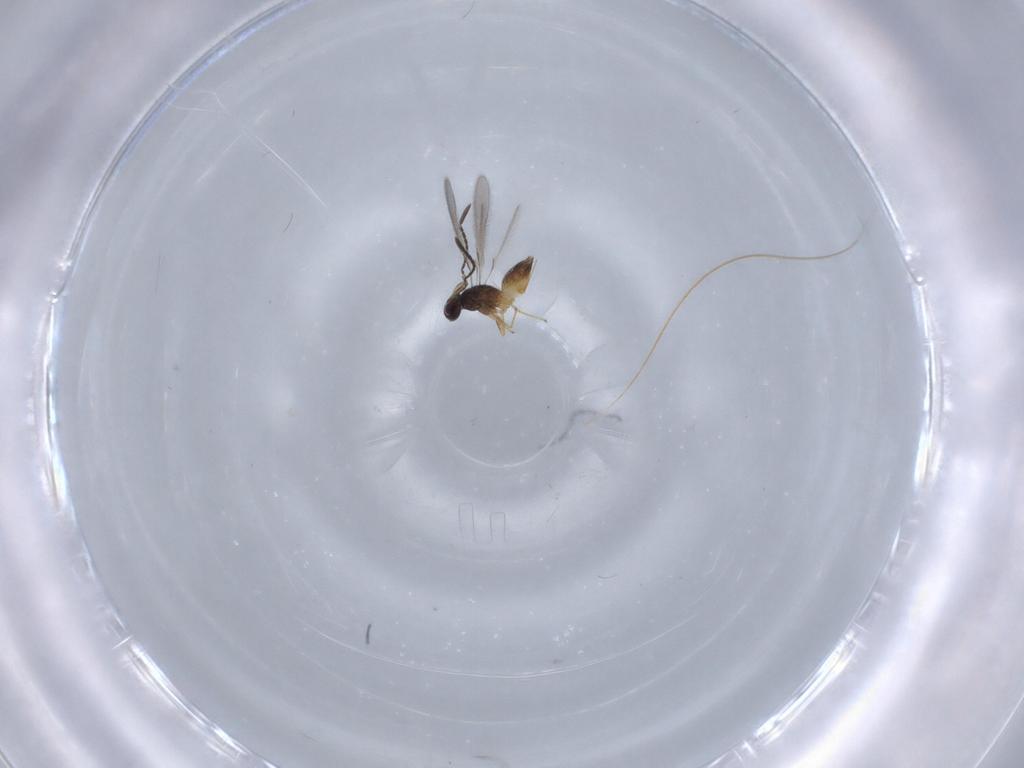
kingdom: Animalia
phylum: Arthropoda
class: Insecta
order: Hymenoptera
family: Mymaridae
